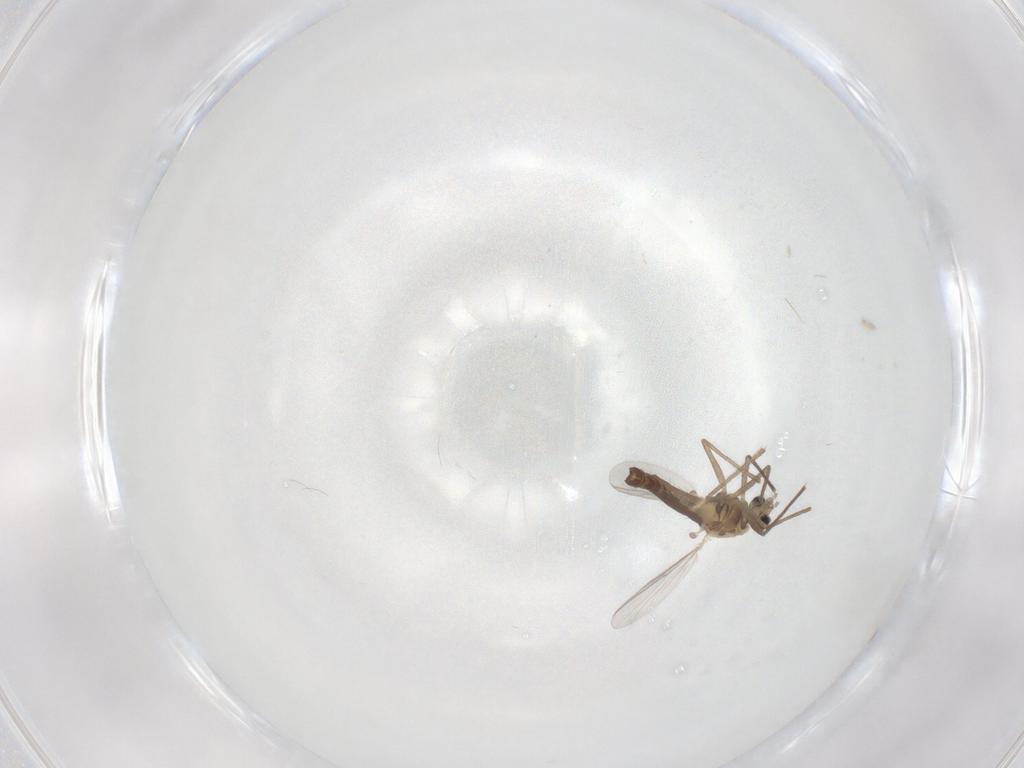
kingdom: Animalia
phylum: Arthropoda
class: Insecta
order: Diptera
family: Chironomidae
